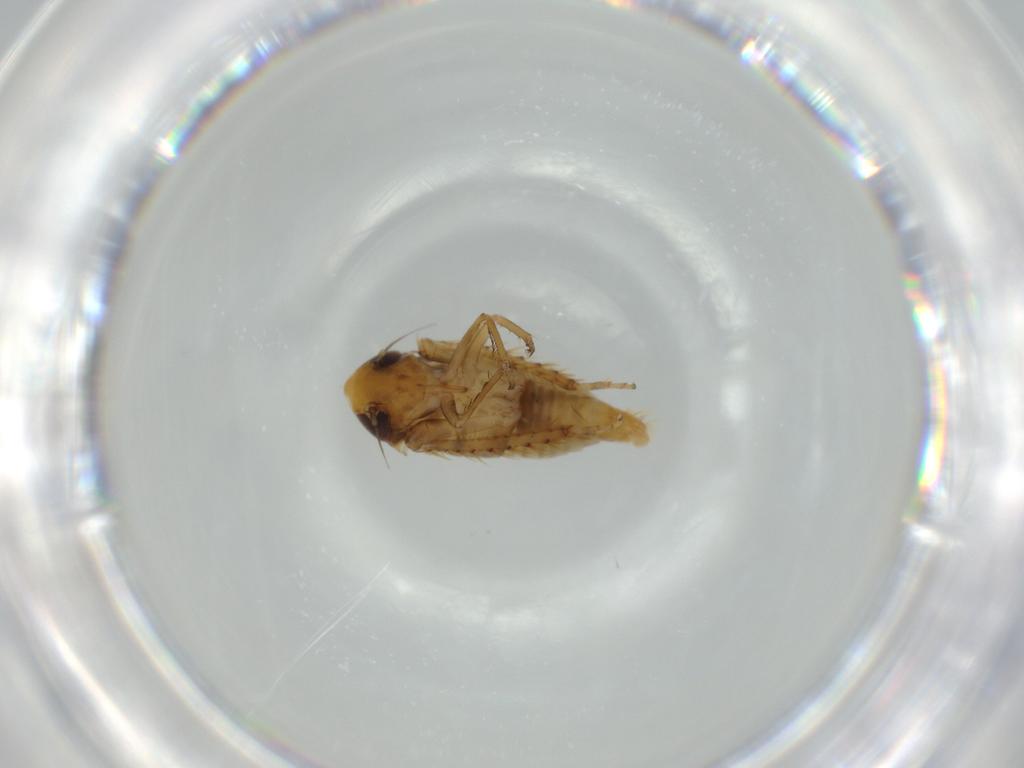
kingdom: Animalia
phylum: Arthropoda
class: Insecta
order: Hemiptera
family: Cicadellidae
